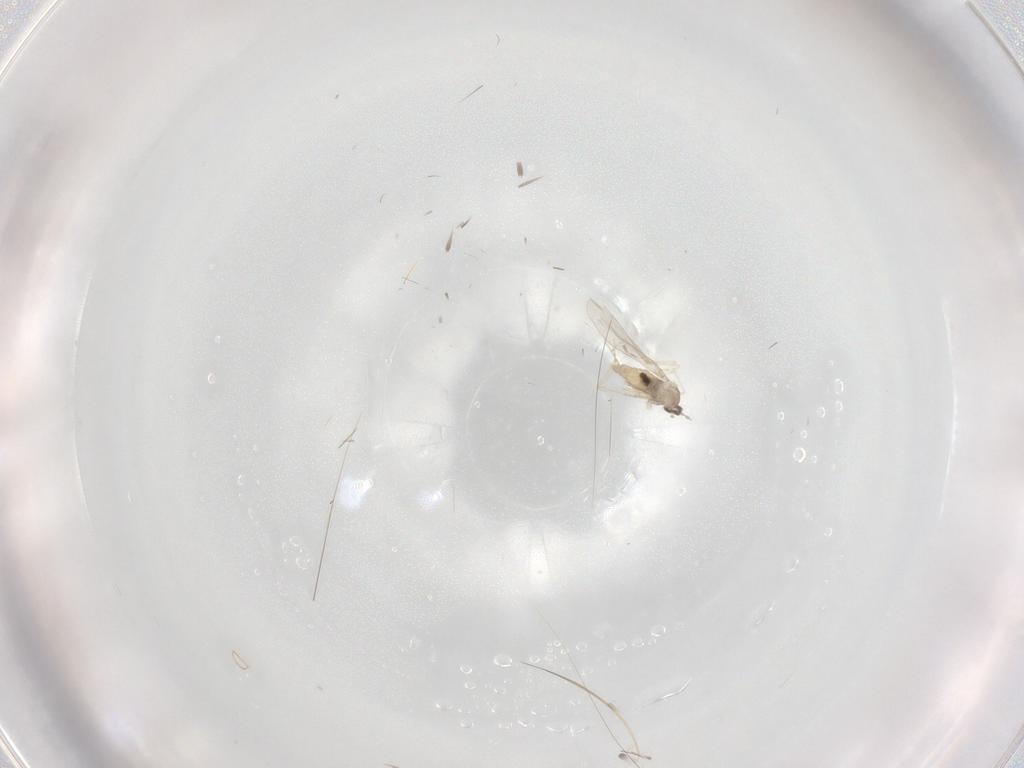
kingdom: Animalia
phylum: Arthropoda
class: Insecta
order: Diptera
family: Cecidomyiidae
